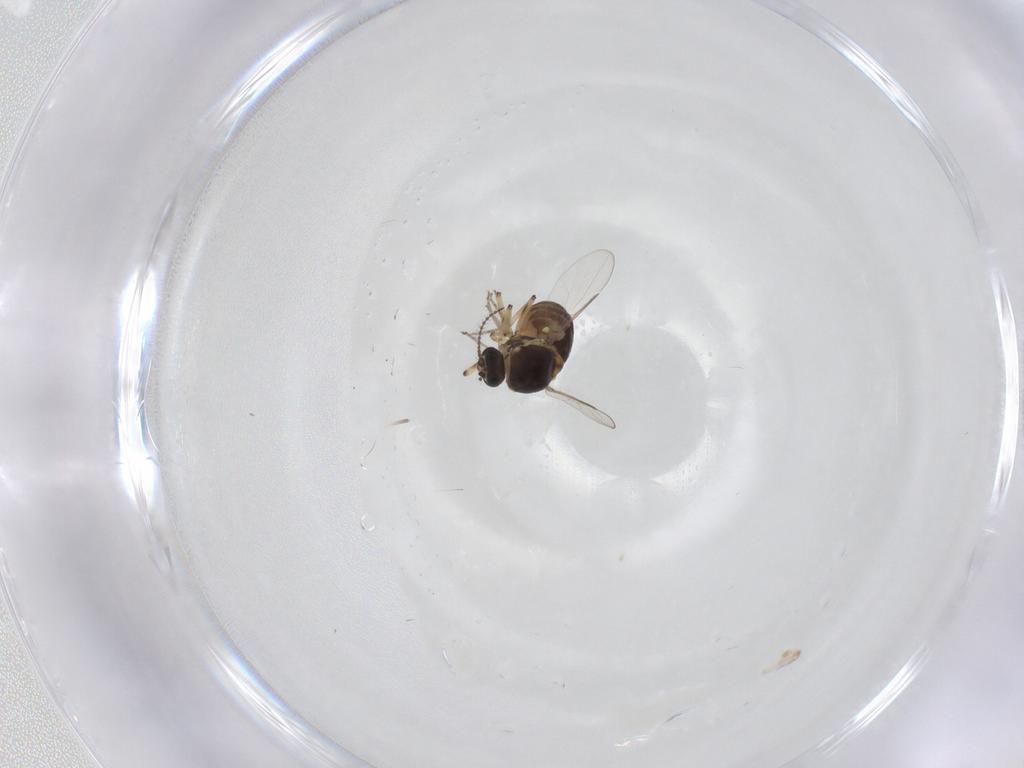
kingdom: Animalia
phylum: Arthropoda
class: Insecta
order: Diptera
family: Ceratopogonidae
